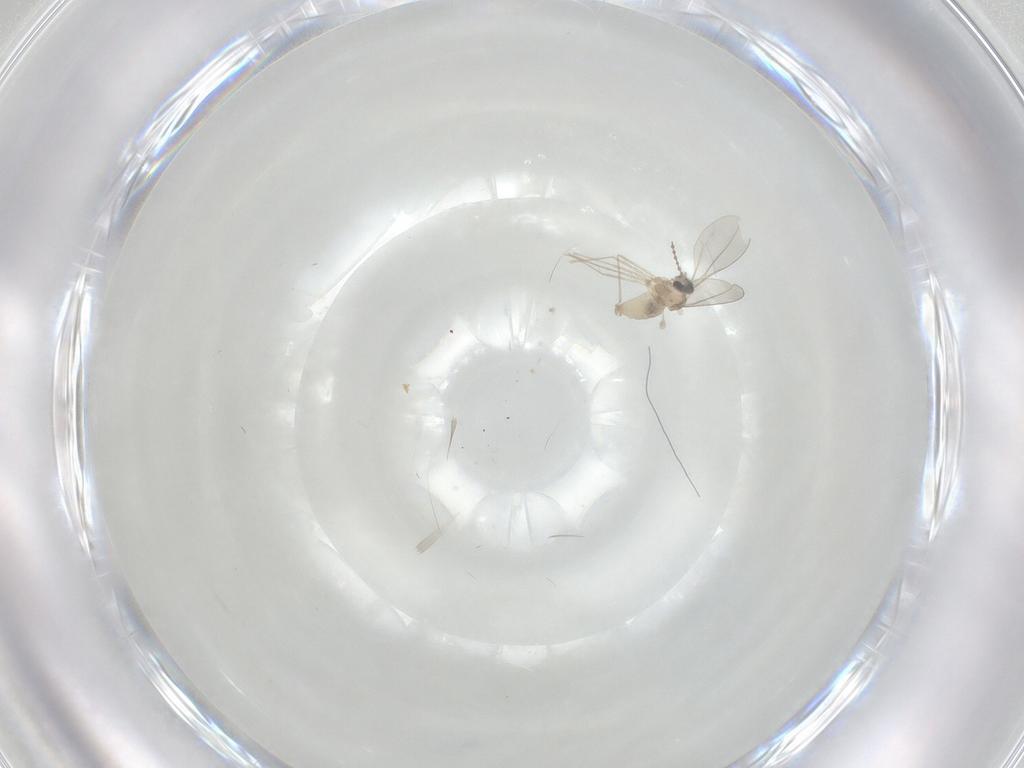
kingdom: Animalia
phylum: Arthropoda
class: Insecta
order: Diptera
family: Cecidomyiidae
